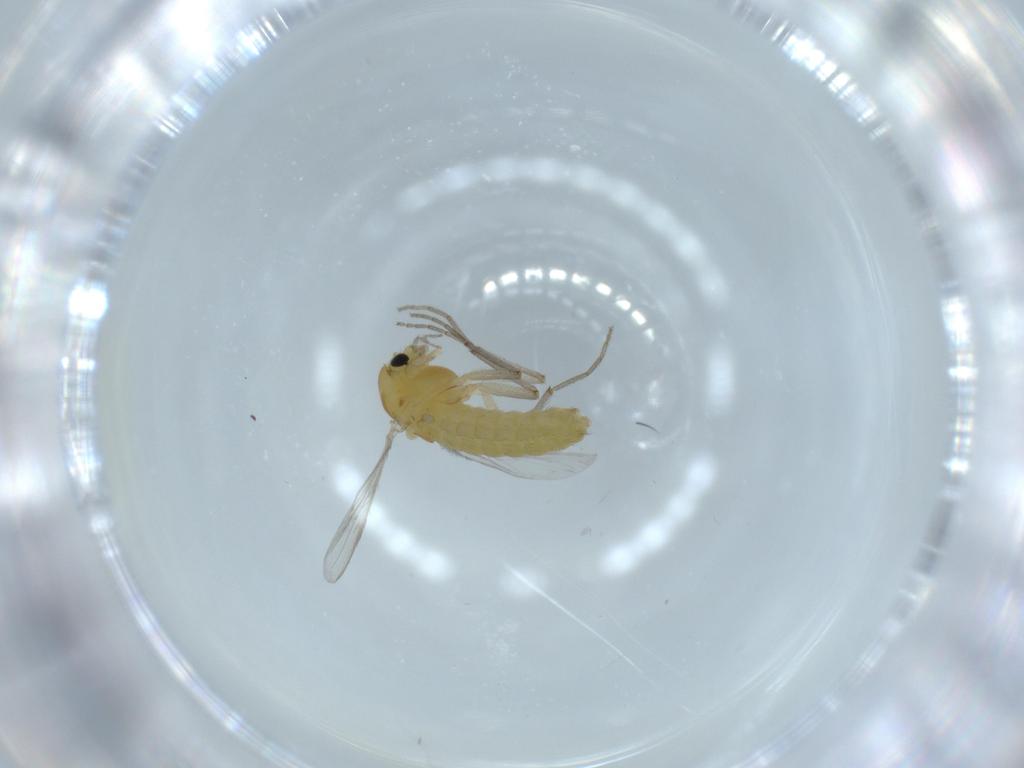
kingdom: Animalia
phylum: Arthropoda
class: Insecta
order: Diptera
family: Chironomidae
